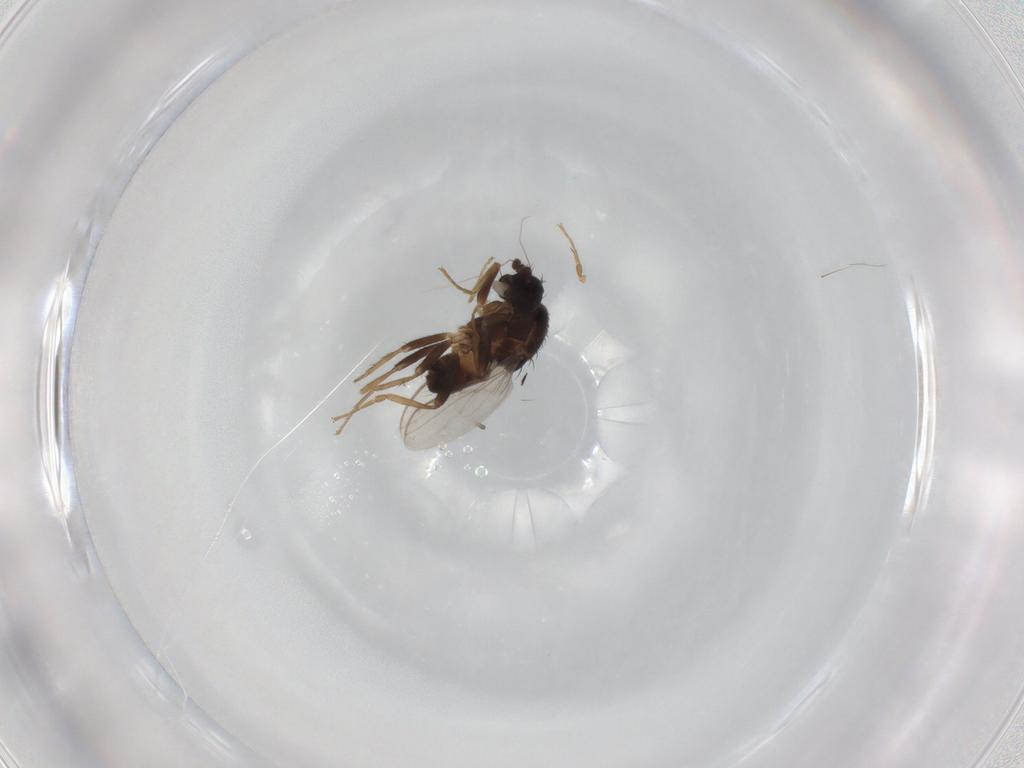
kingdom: Animalia
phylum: Arthropoda
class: Insecta
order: Diptera
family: Sphaeroceridae
